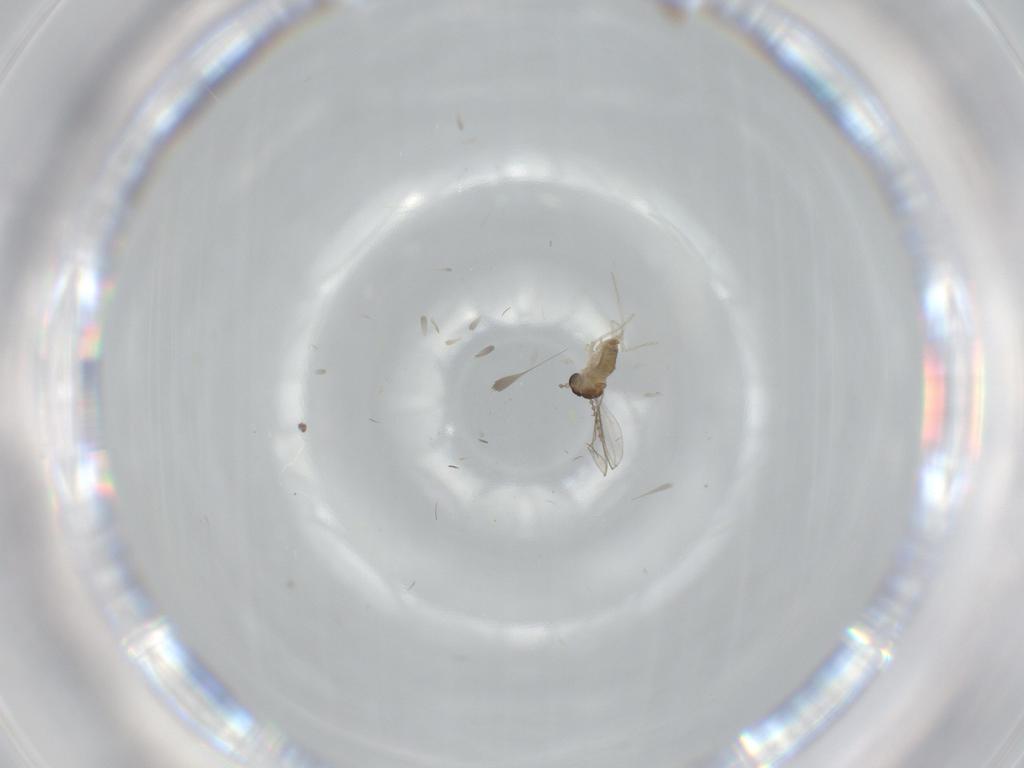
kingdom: Animalia
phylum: Arthropoda
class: Insecta
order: Diptera
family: Cecidomyiidae
